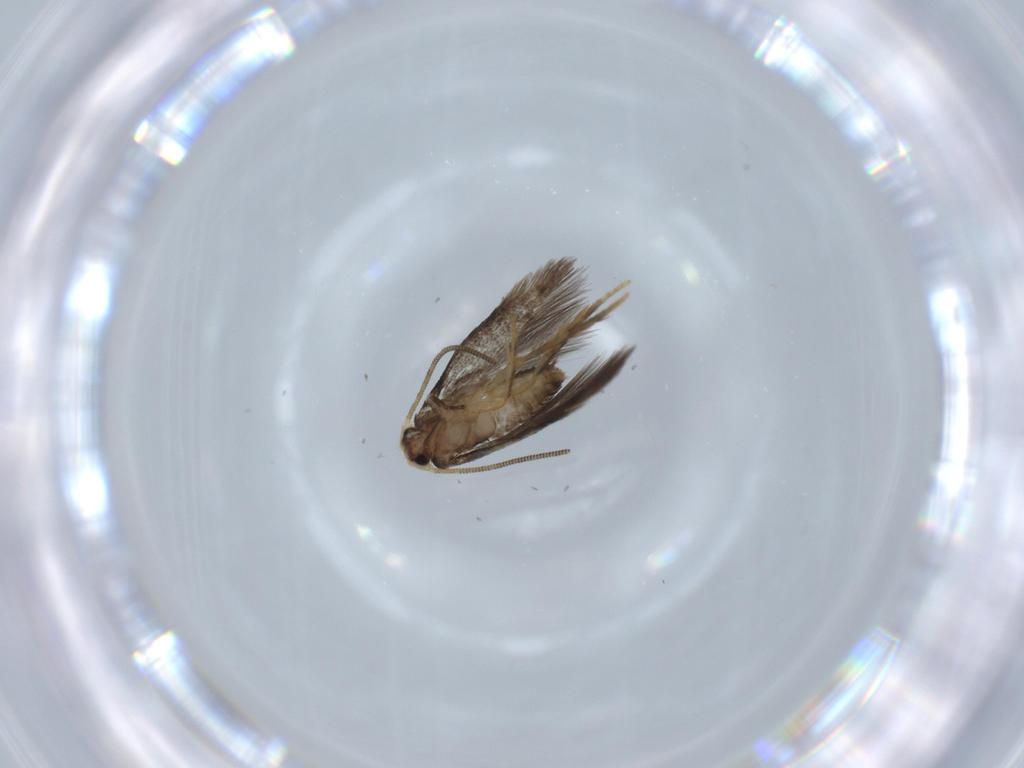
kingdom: Animalia
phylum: Arthropoda
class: Insecta
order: Lepidoptera
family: Nepticulidae
